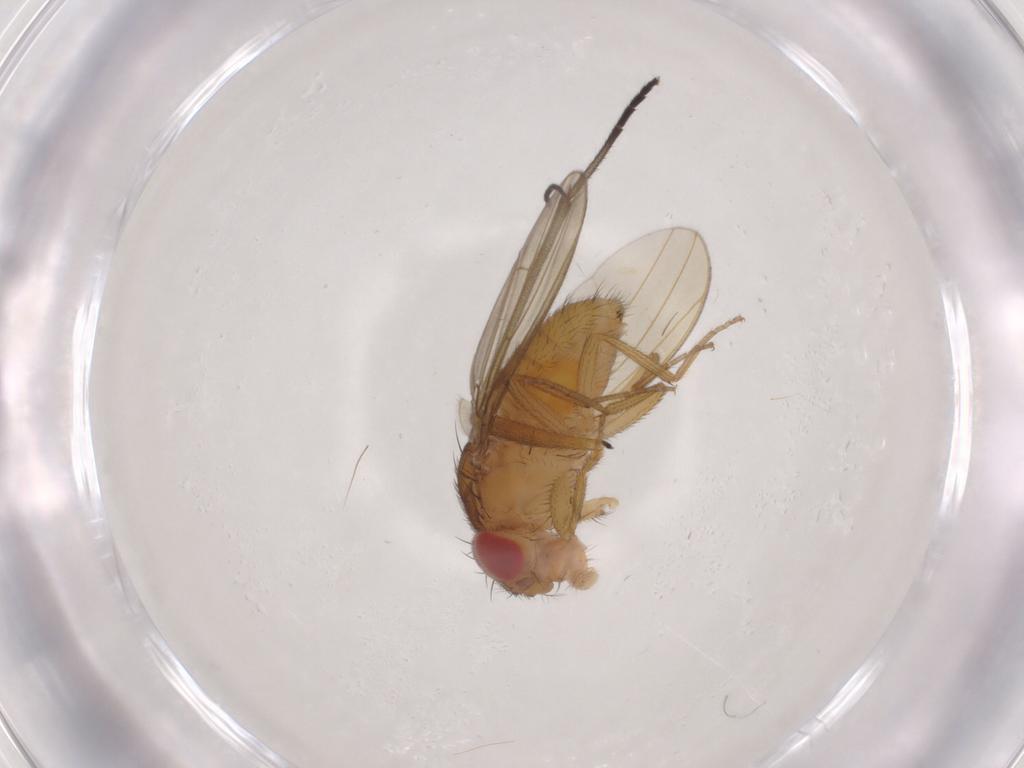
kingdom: Animalia
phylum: Arthropoda
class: Insecta
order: Diptera
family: Drosophilidae
